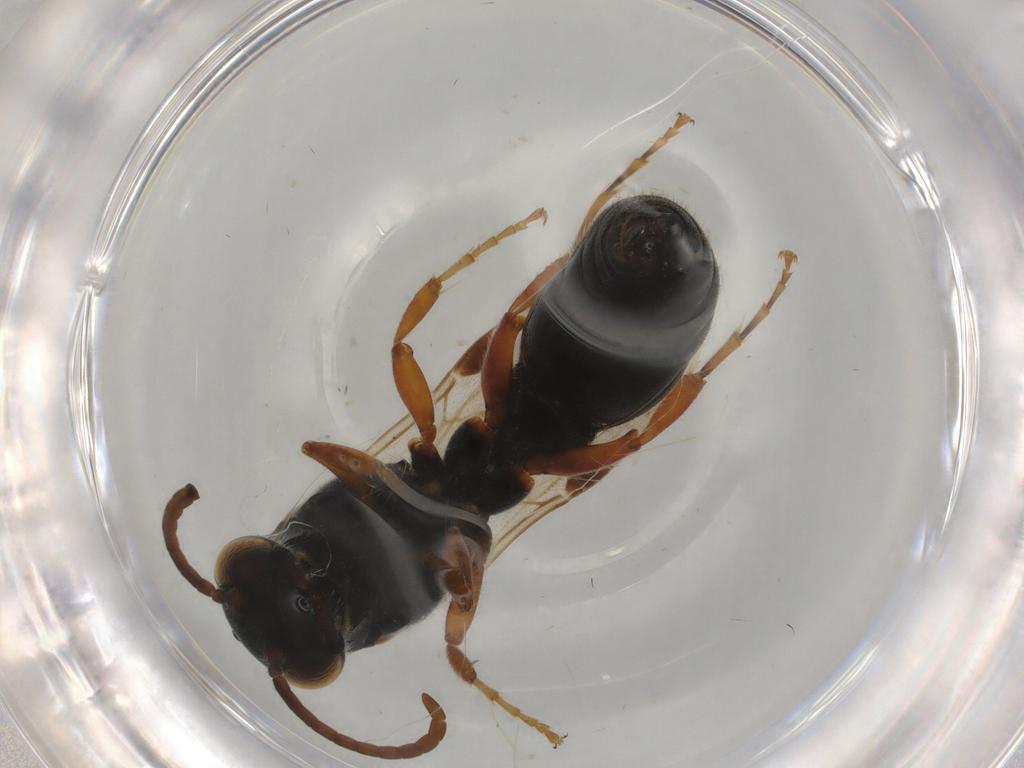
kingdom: Animalia
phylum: Arthropoda
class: Insecta
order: Hymenoptera
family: Tiphiidae
